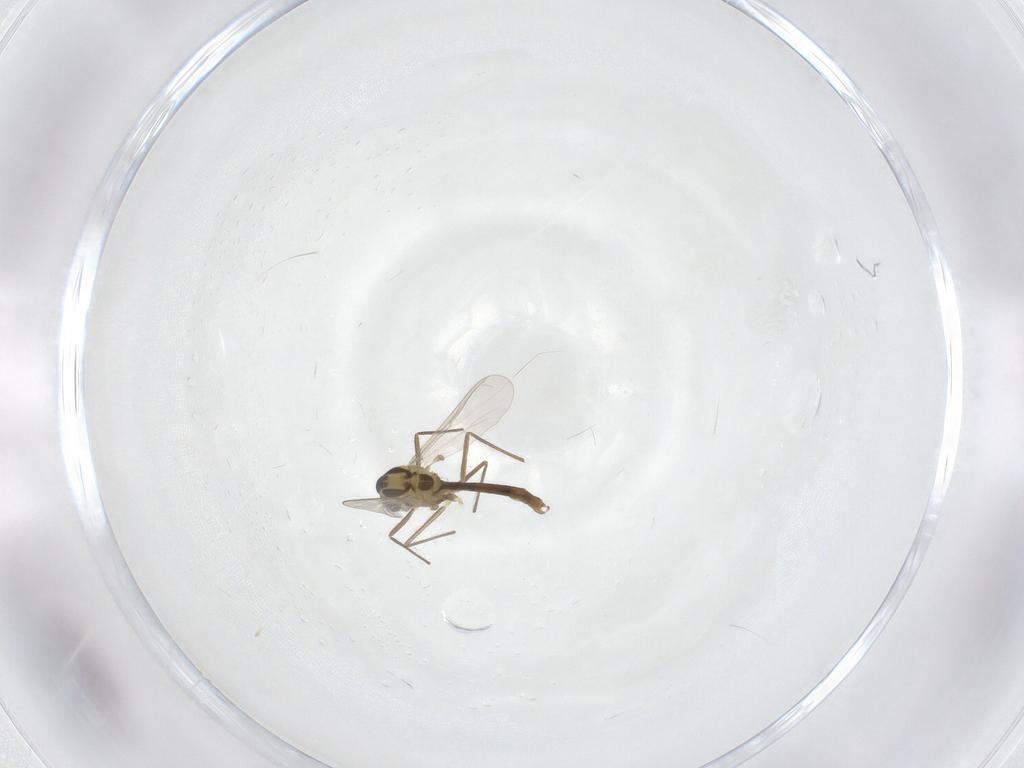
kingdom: Animalia
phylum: Arthropoda
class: Insecta
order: Diptera
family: Chironomidae
